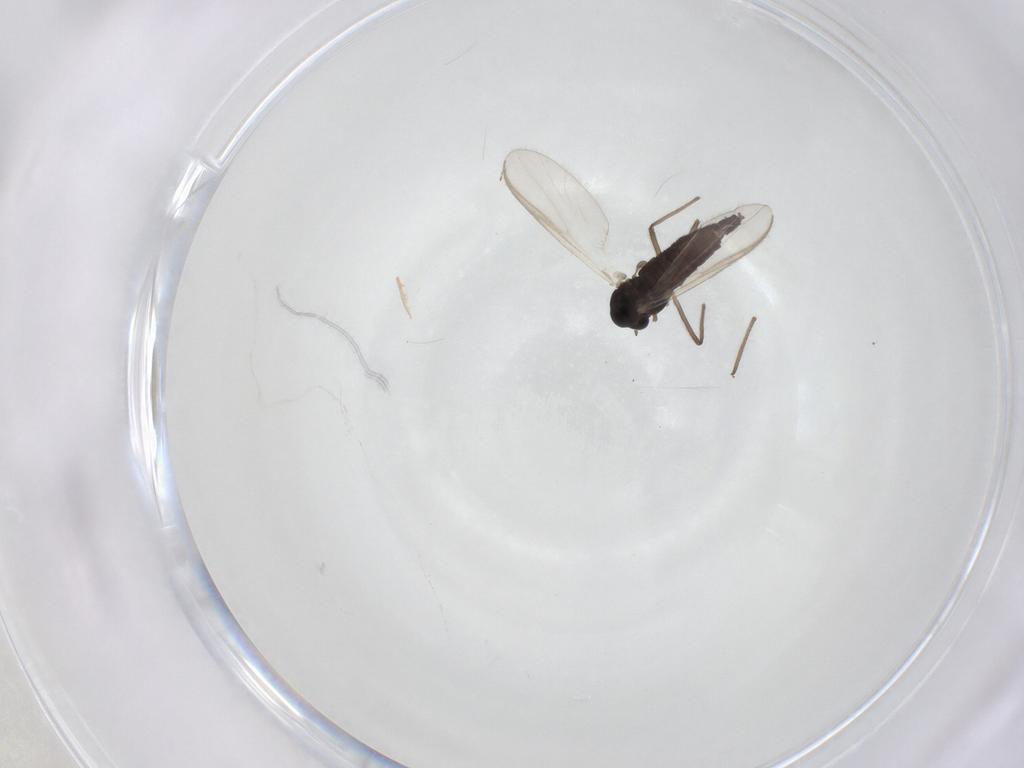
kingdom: Animalia
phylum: Arthropoda
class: Insecta
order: Diptera
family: Chironomidae
